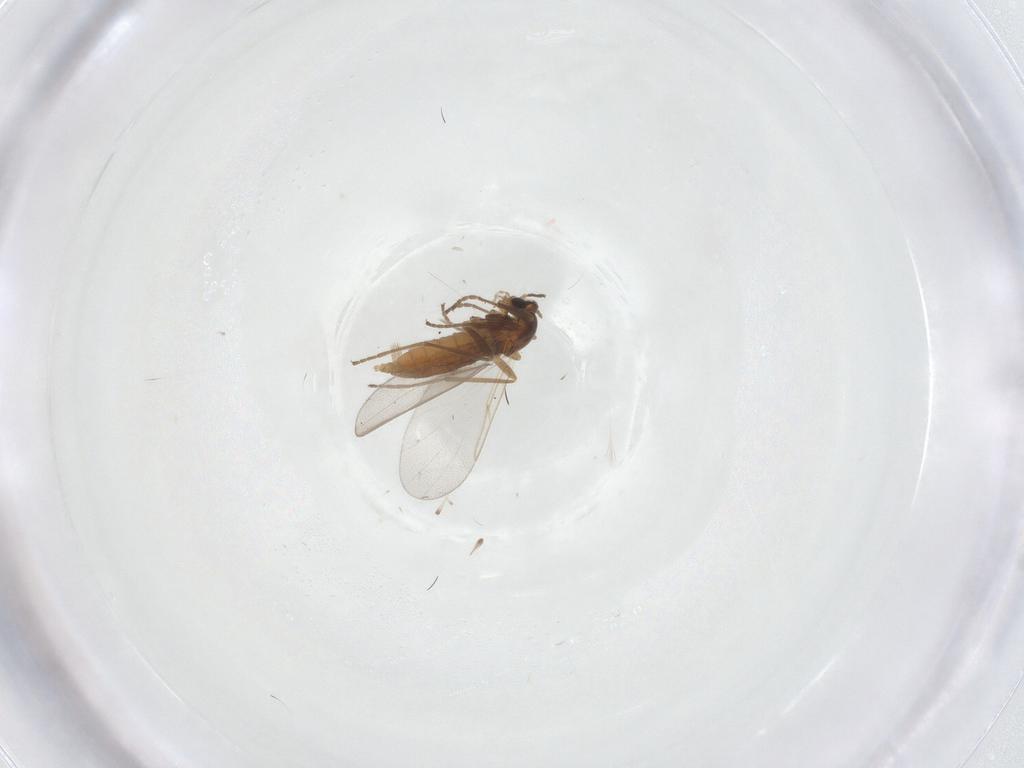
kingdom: Animalia
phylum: Arthropoda
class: Insecta
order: Diptera
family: Cecidomyiidae
